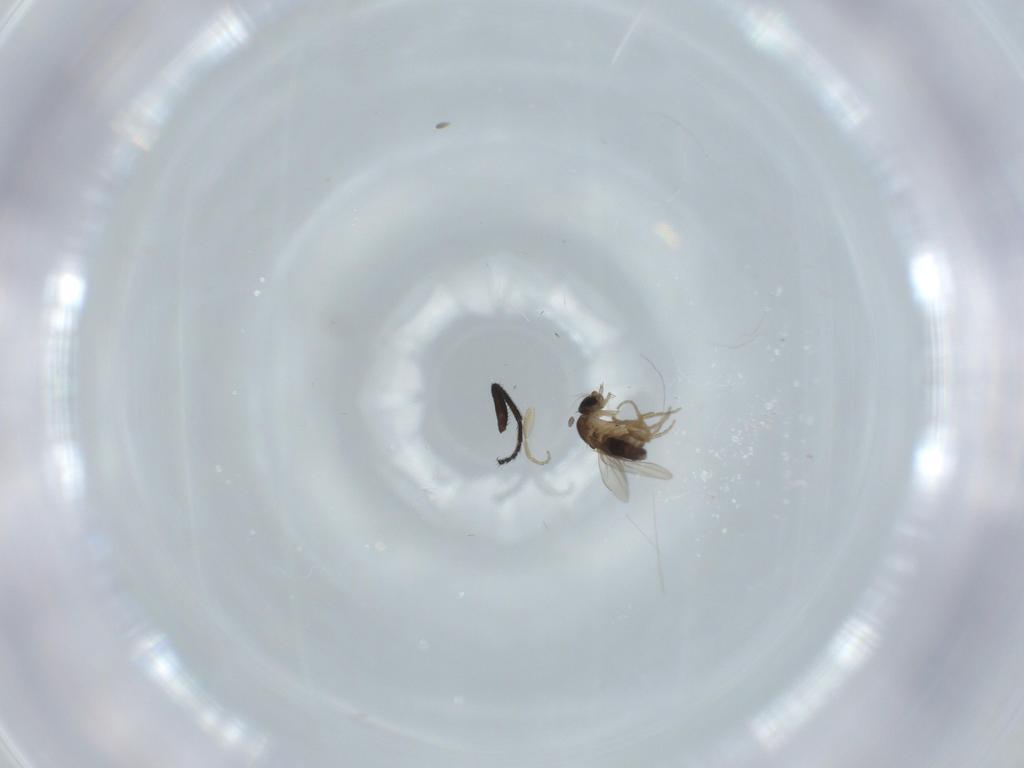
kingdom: Animalia
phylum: Arthropoda
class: Insecta
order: Diptera
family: Phoridae
